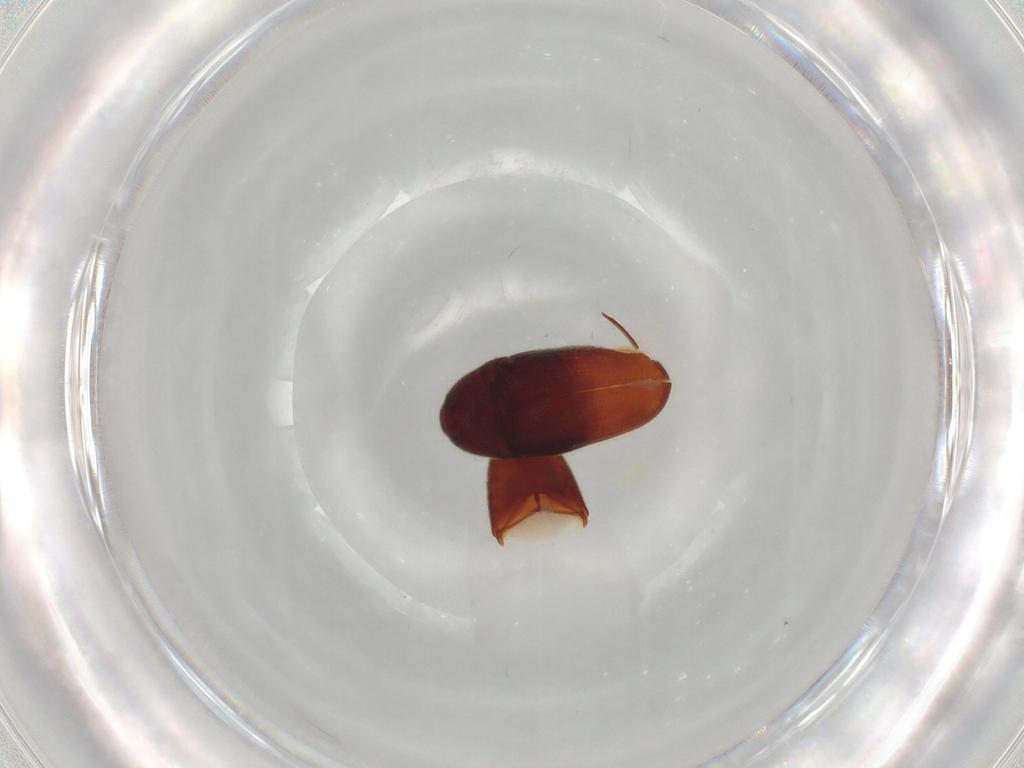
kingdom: Animalia
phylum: Arthropoda
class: Insecta
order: Coleoptera
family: Throscidae
